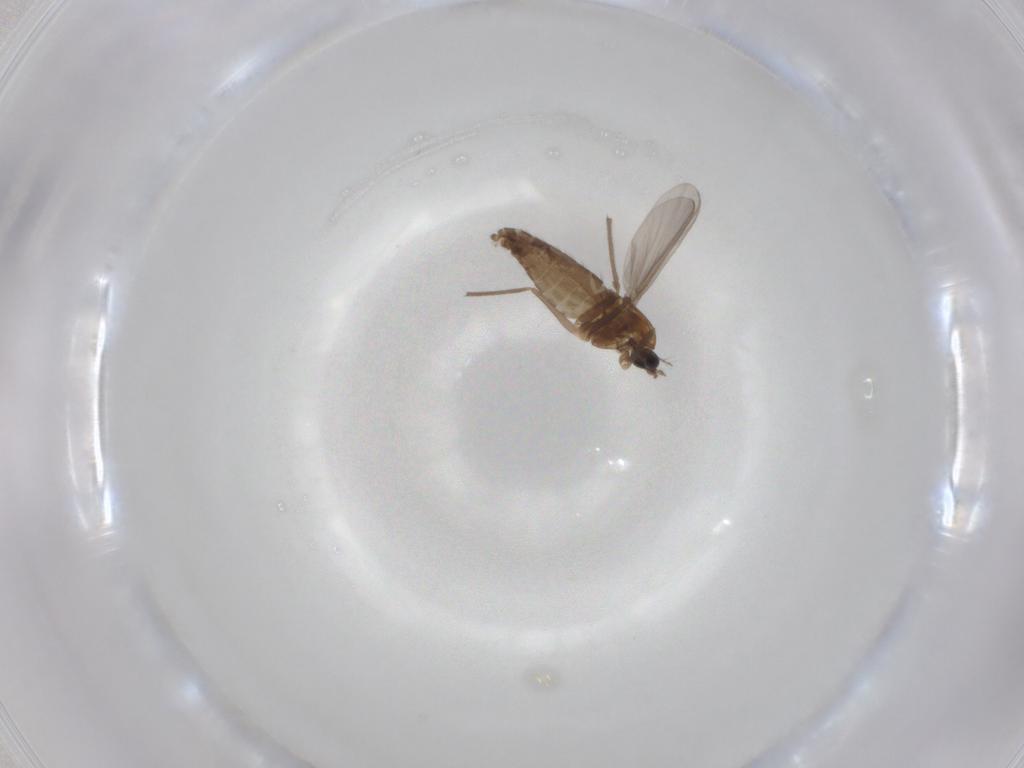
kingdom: Animalia
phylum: Arthropoda
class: Insecta
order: Diptera
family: Chironomidae
